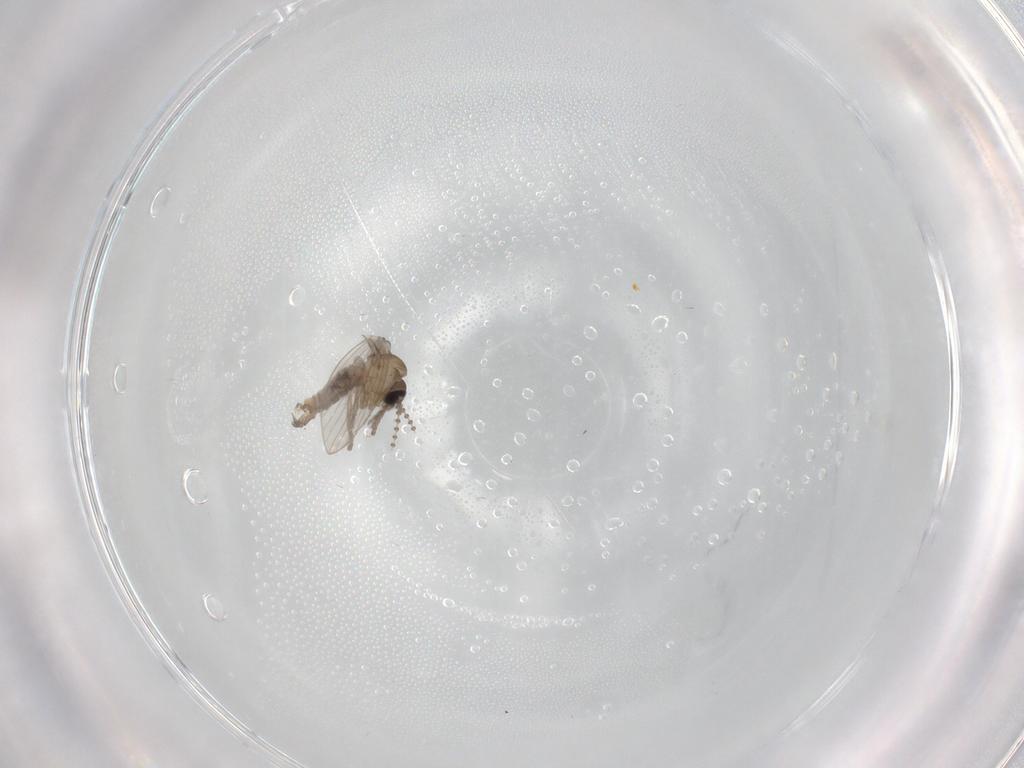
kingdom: Animalia
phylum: Arthropoda
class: Insecta
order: Diptera
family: Psychodidae
